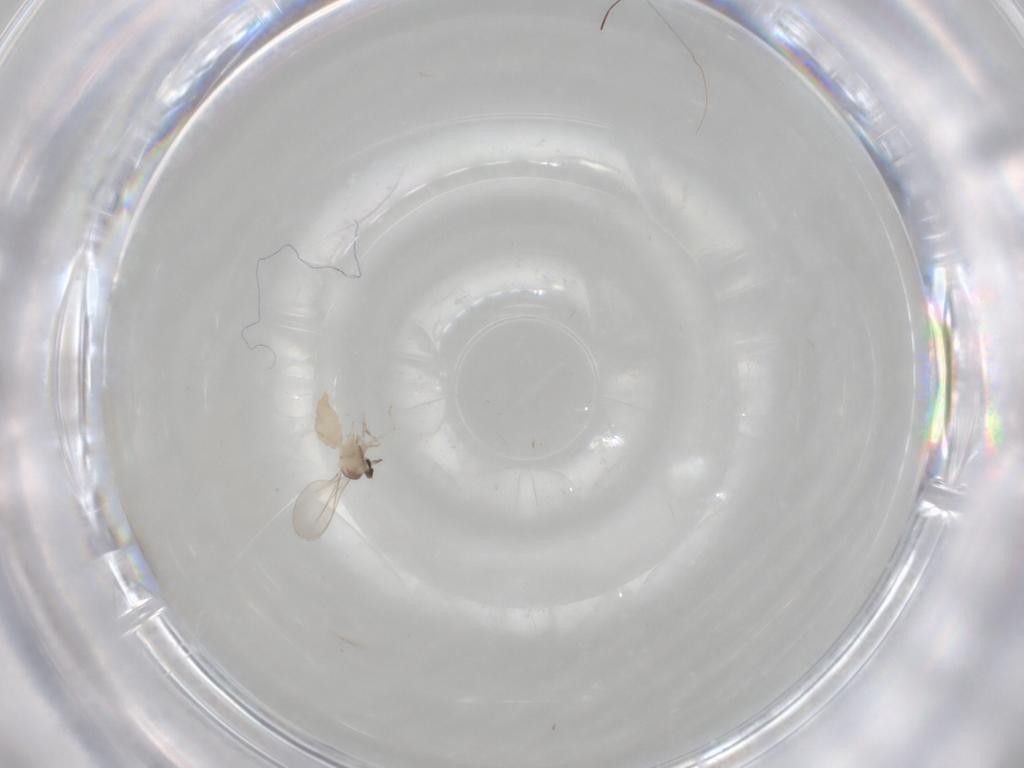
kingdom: Animalia
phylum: Arthropoda
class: Insecta
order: Diptera
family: Cecidomyiidae
